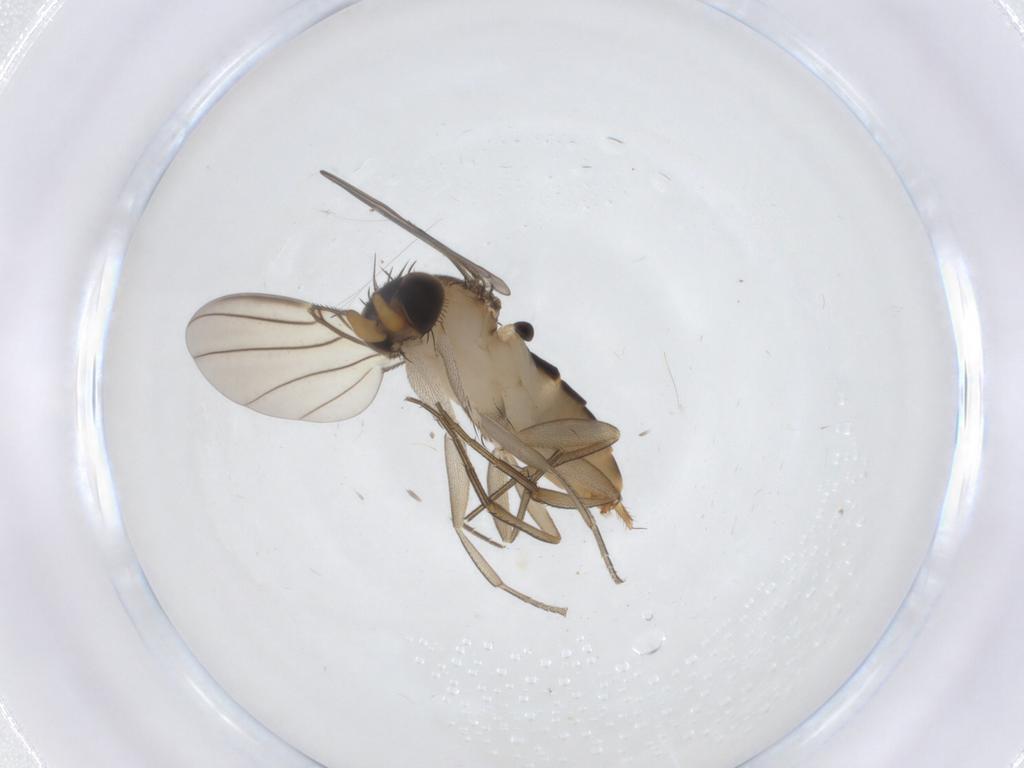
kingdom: Animalia
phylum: Arthropoda
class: Insecta
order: Diptera
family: Phoridae
